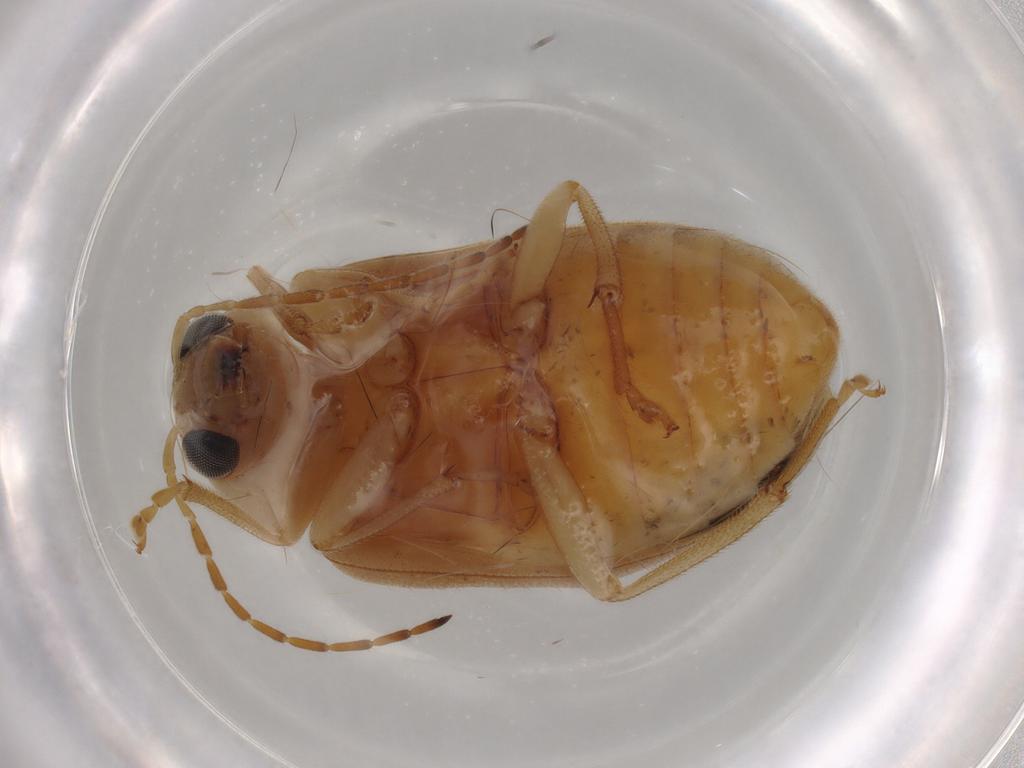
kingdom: Animalia
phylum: Arthropoda
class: Insecta
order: Coleoptera
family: Chrysomelidae
